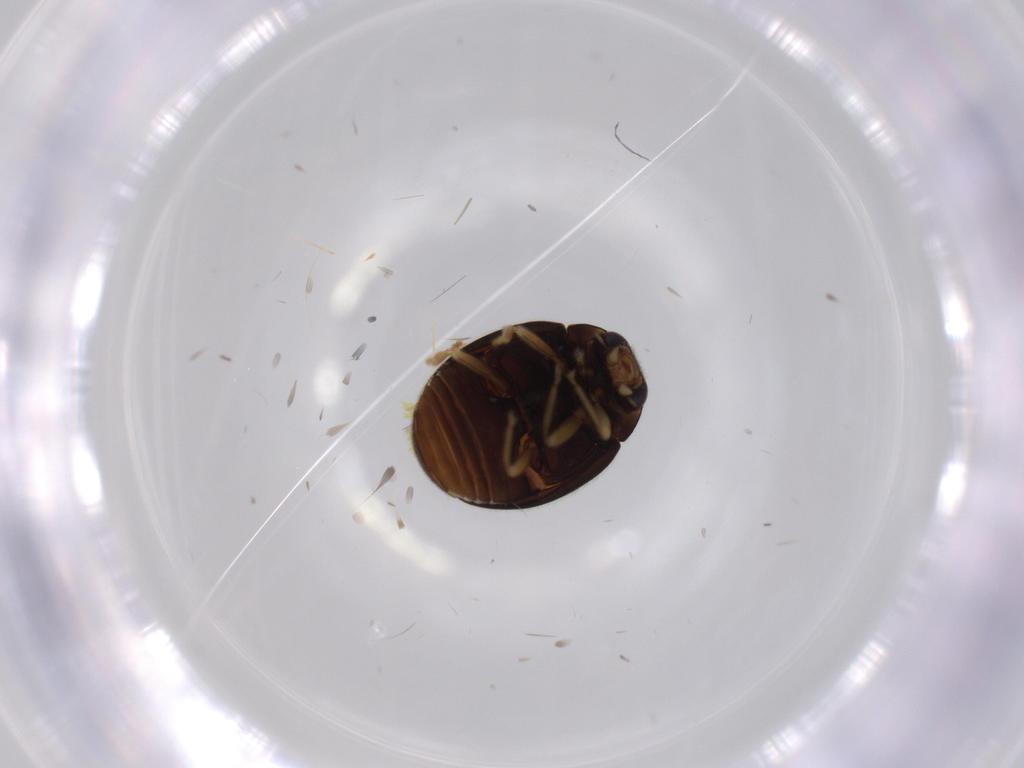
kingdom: Animalia
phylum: Arthropoda
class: Insecta
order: Coleoptera
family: Coccinellidae
